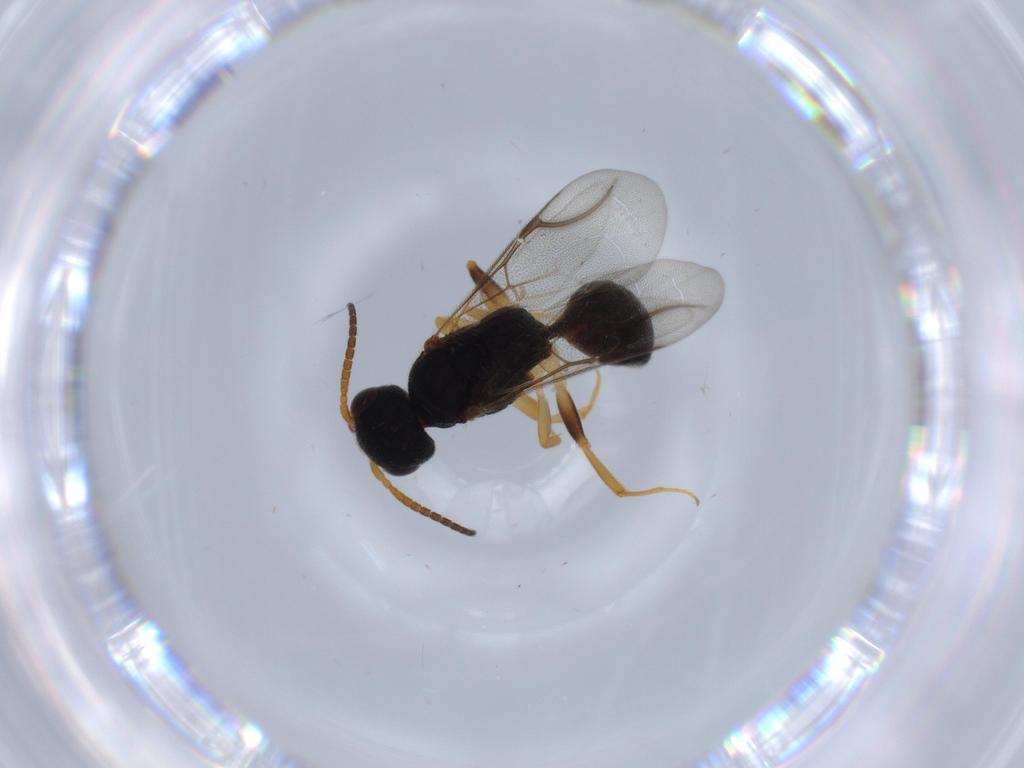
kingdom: Animalia
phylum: Arthropoda
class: Insecta
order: Hymenoptera
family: Bethylidae
